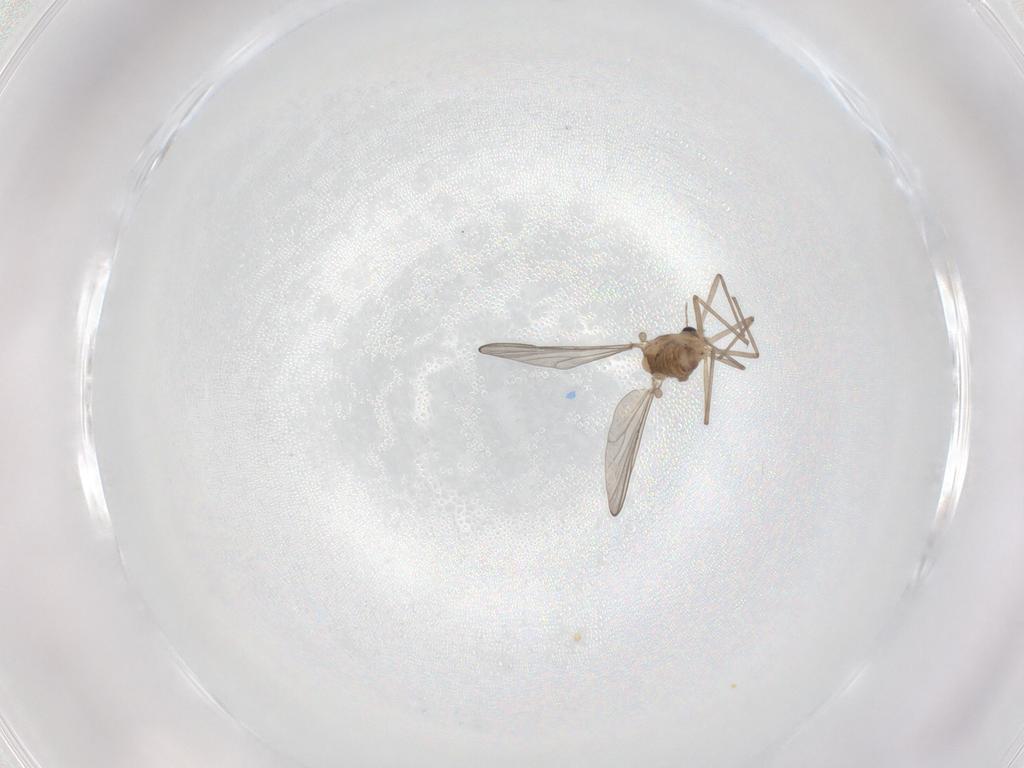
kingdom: Animalia
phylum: Arthropoda
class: Insecta
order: Diptera
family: Chironomidae
